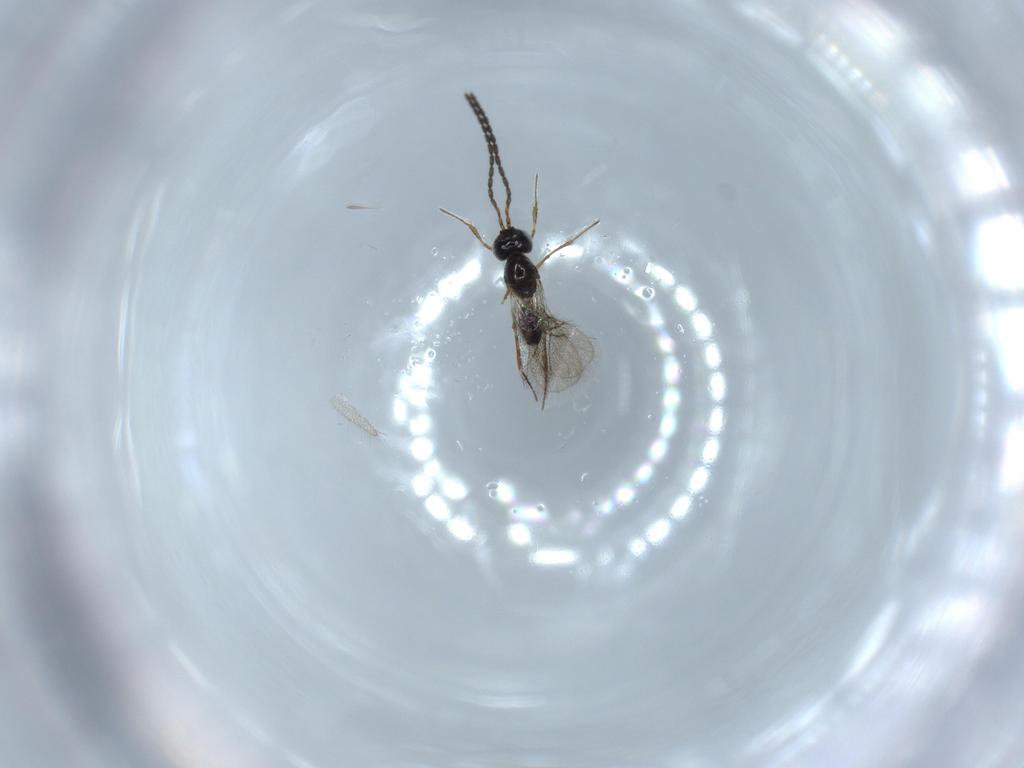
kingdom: Animalia
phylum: Arthropoda
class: Insecta
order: Hymenoptera
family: Figitidae
